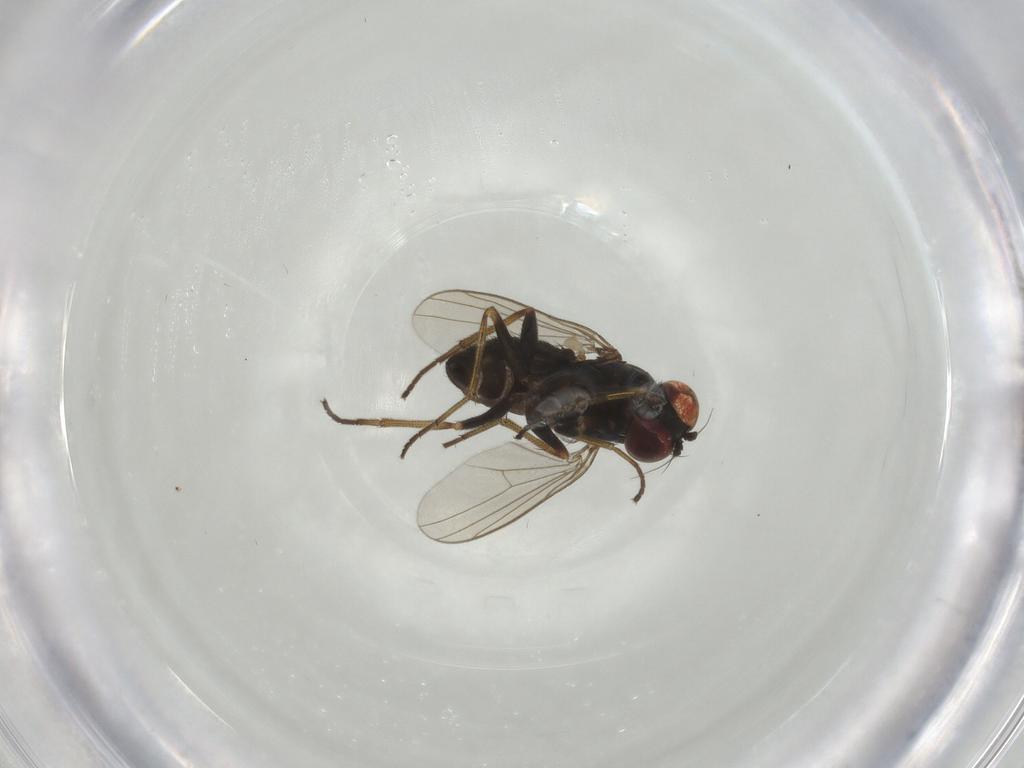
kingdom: Animalia
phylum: Arthropoda
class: Insecta
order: Diptera
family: Dolichopodidae
